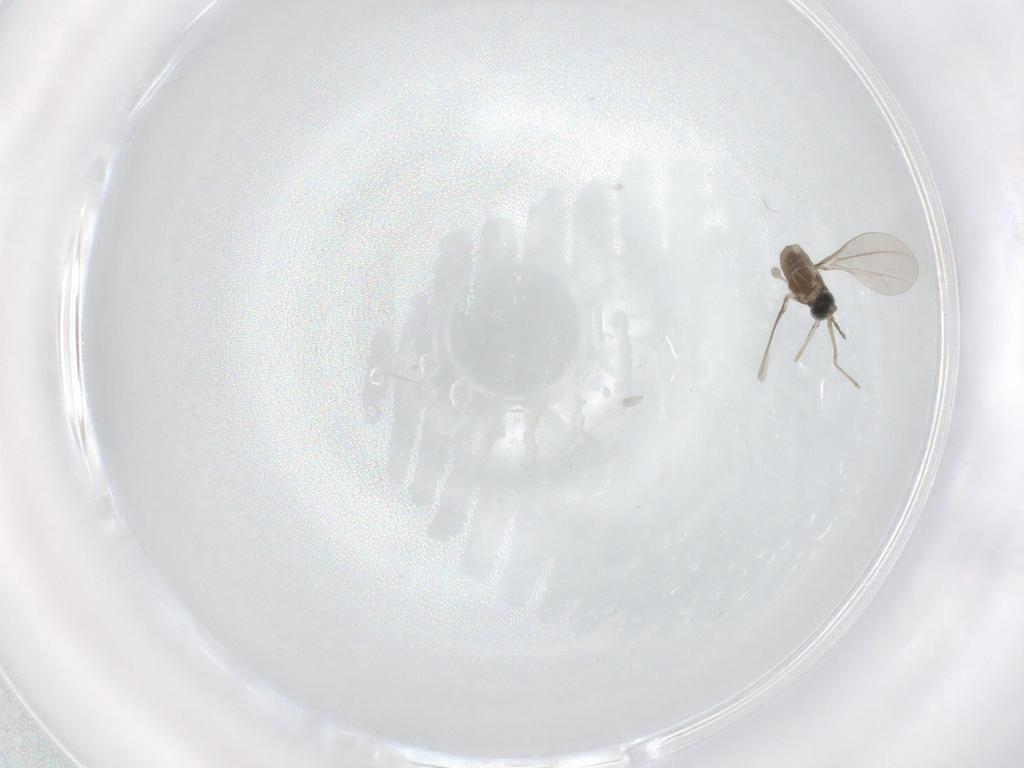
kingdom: Animalia
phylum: Arthropoda
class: Insecta
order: Diptera
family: Cecidomyiidae
